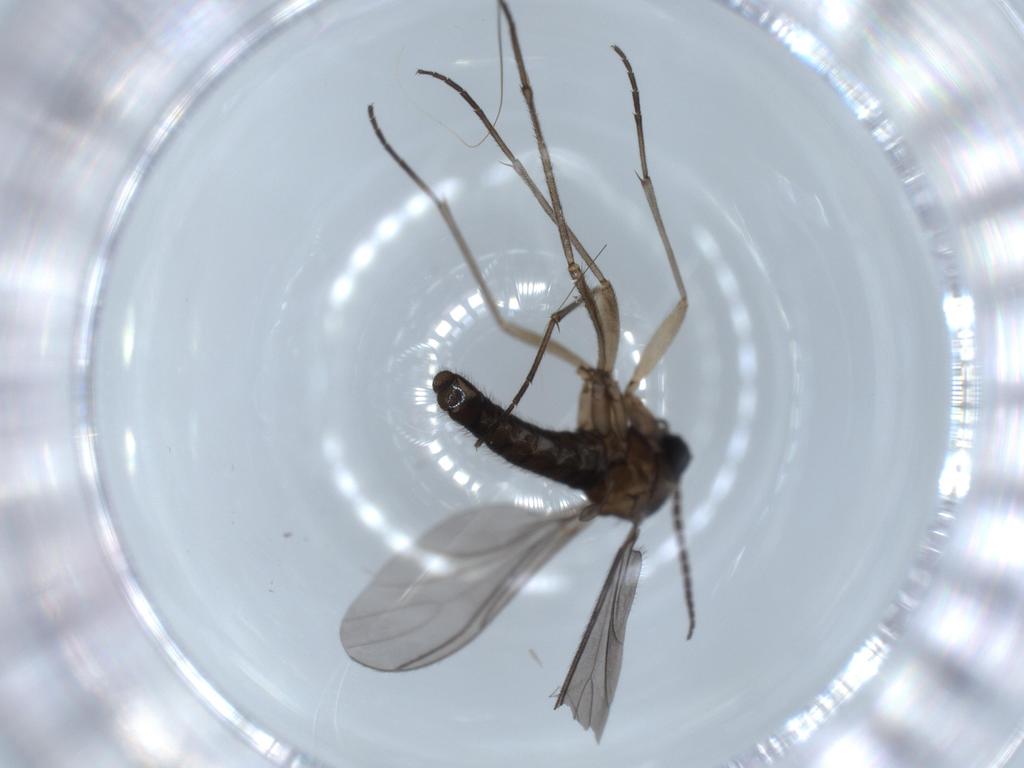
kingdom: Animalia
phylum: Arthropoda
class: Insecta
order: Diptera
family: Sciaridae
